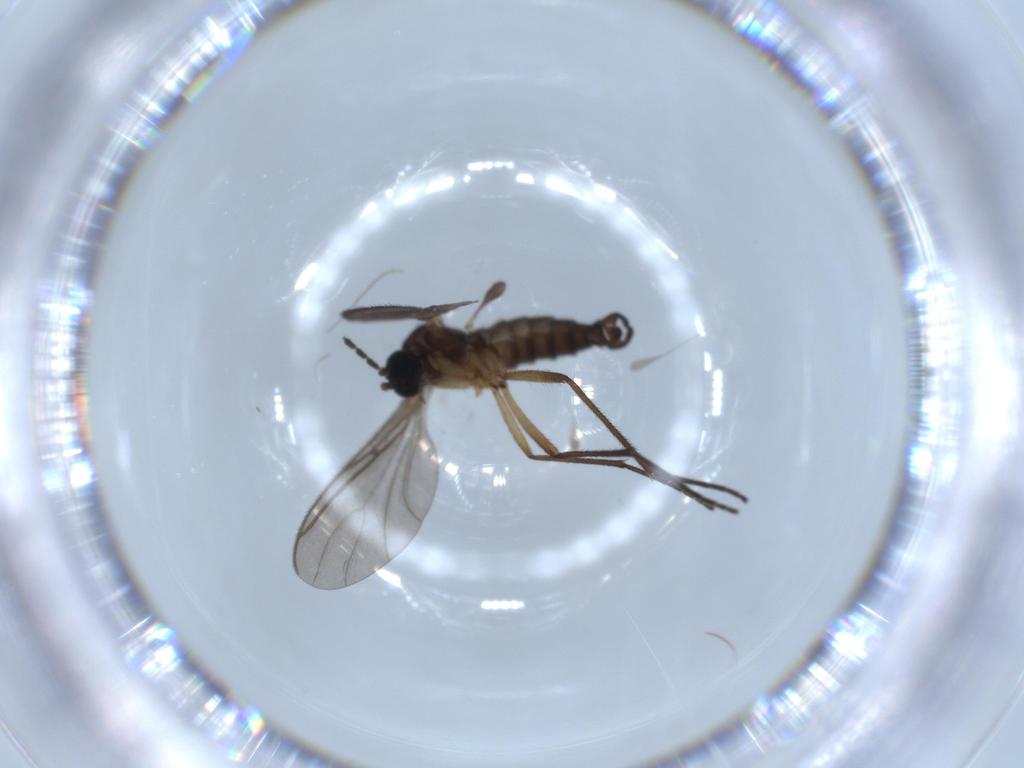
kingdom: Animalia
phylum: Arthropoda
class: Insecta
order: Diptera
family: Chironomidae
